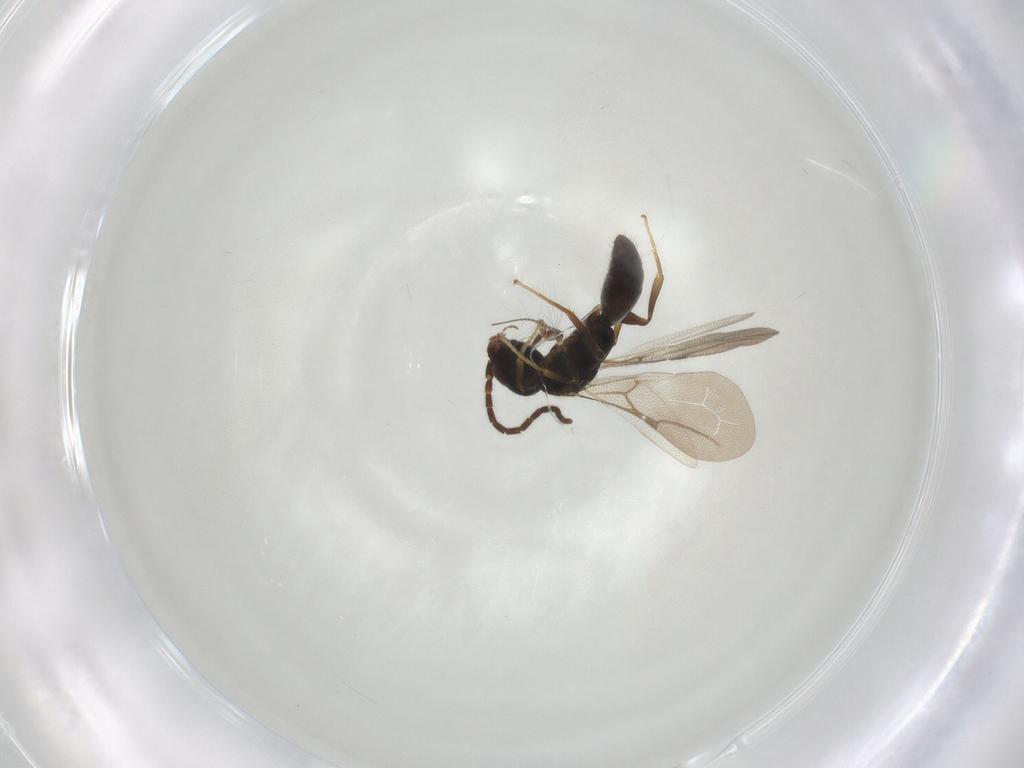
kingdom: Animalia
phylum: Arthropoda
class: Insecta
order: Hymenoptera
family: Bethylidae
